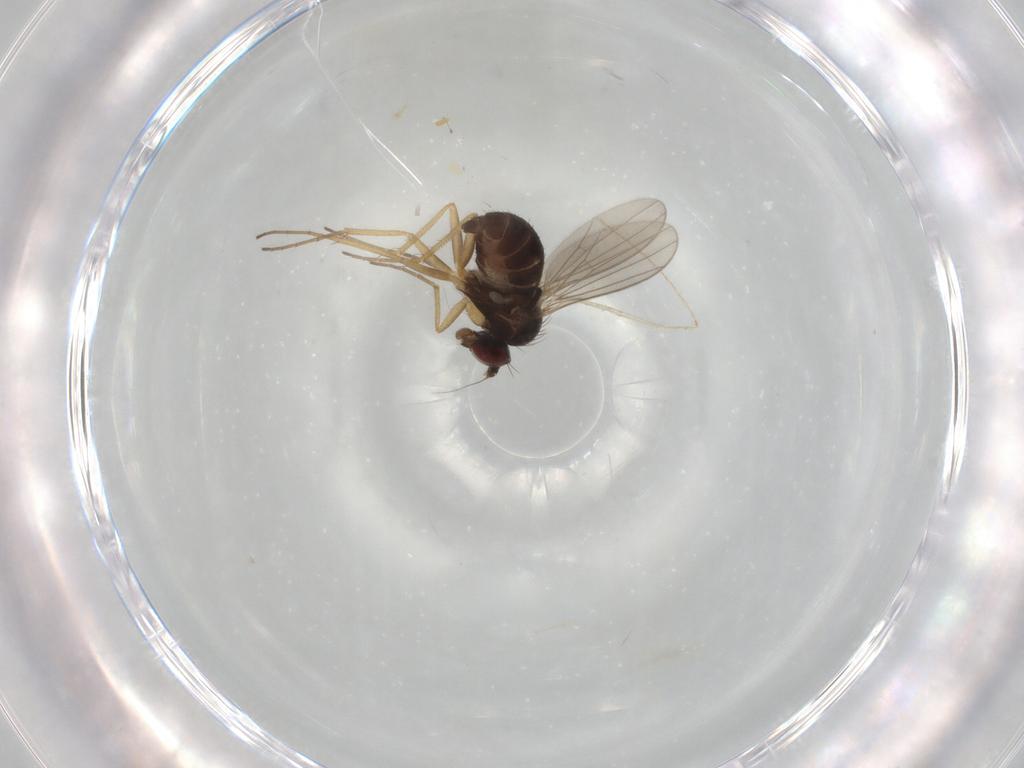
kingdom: Animalia
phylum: Arthropoda
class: Insecta
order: Diptera
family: Dolichopodidae
